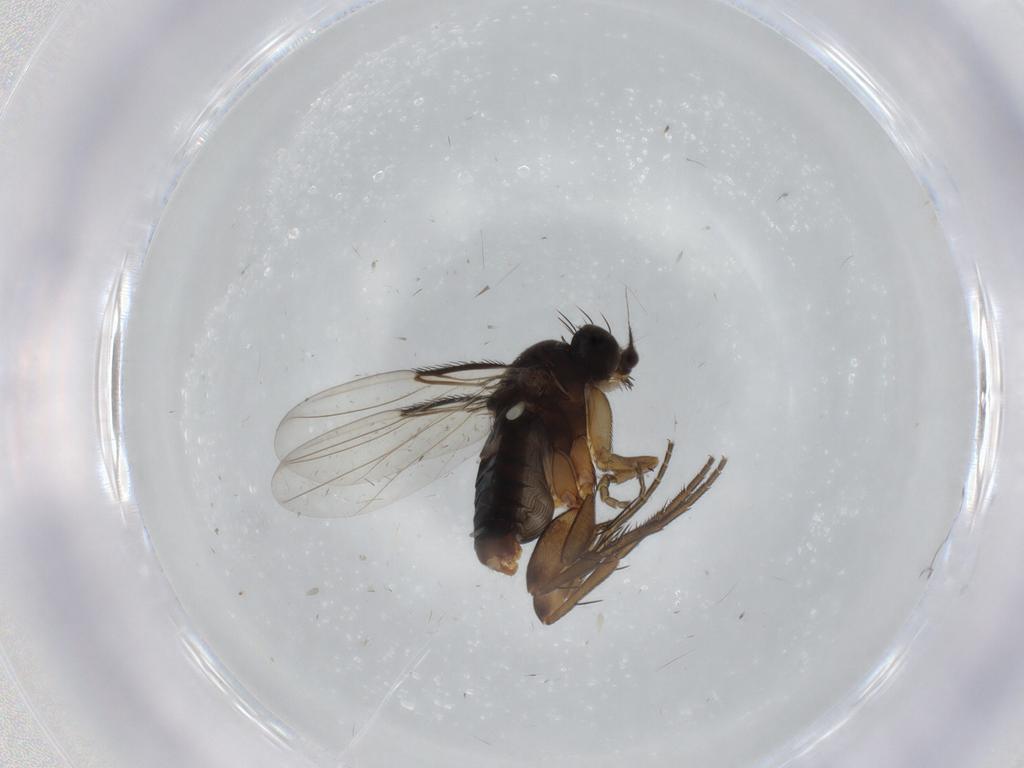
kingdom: Animalia
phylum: Arthropoda
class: Insecta
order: Diptera
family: Phoridae
